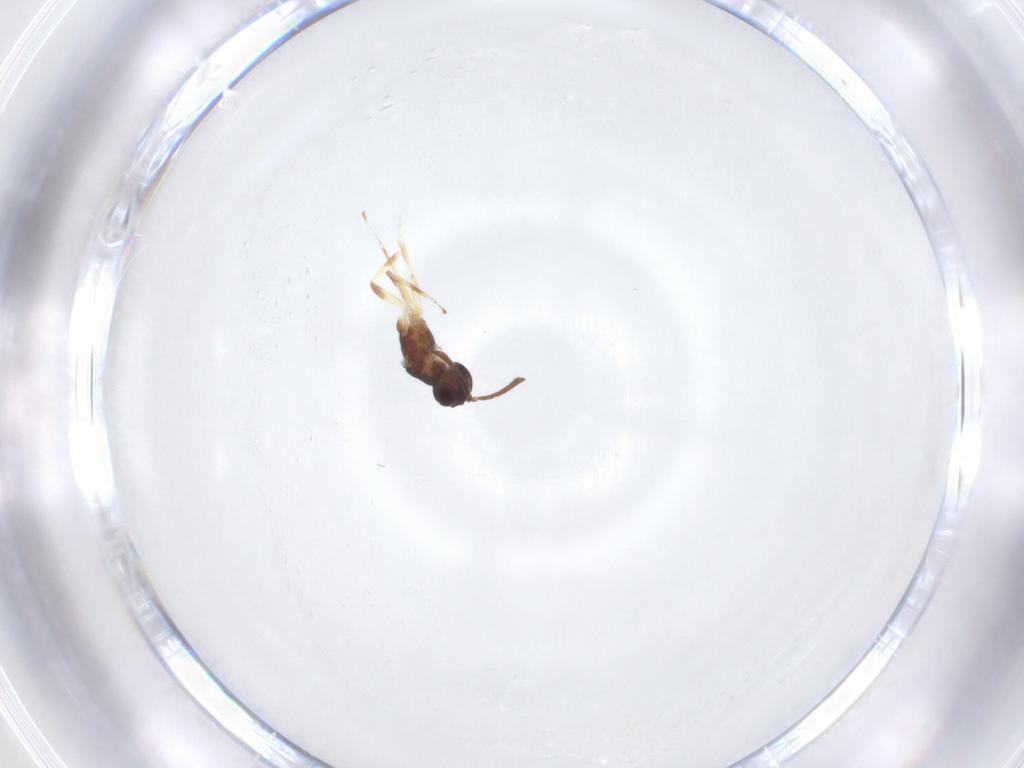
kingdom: Animalia
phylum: Arthropoda
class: Insecta
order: Hymenoptera
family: Eupelmidae
